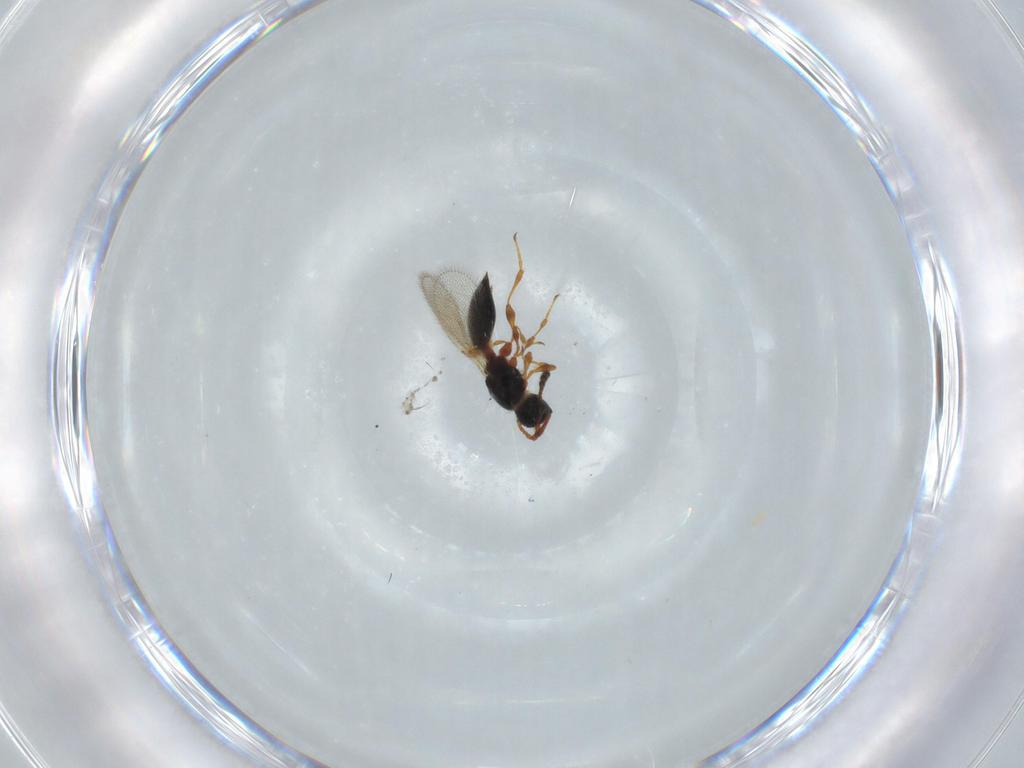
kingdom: Animalia
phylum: Arthropoda
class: Insecta
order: Hymenoptera
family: Diapriidae
